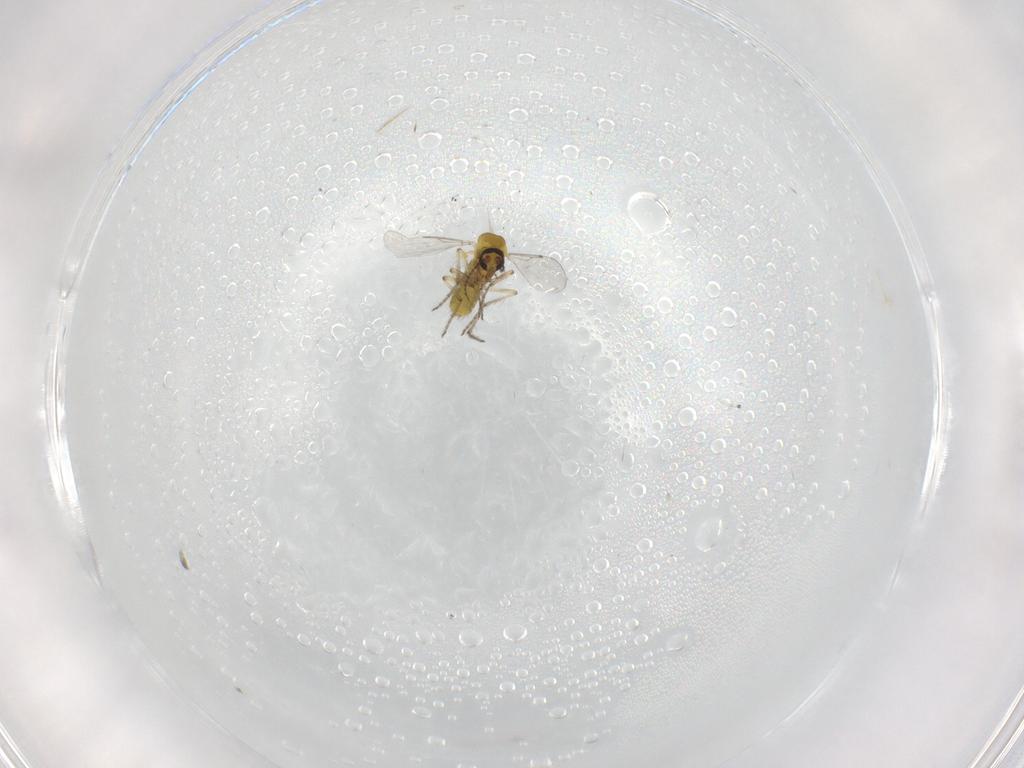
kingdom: Animalia
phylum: Arthropoda
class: Insecta
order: Diptera
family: Ceratopogonidae
